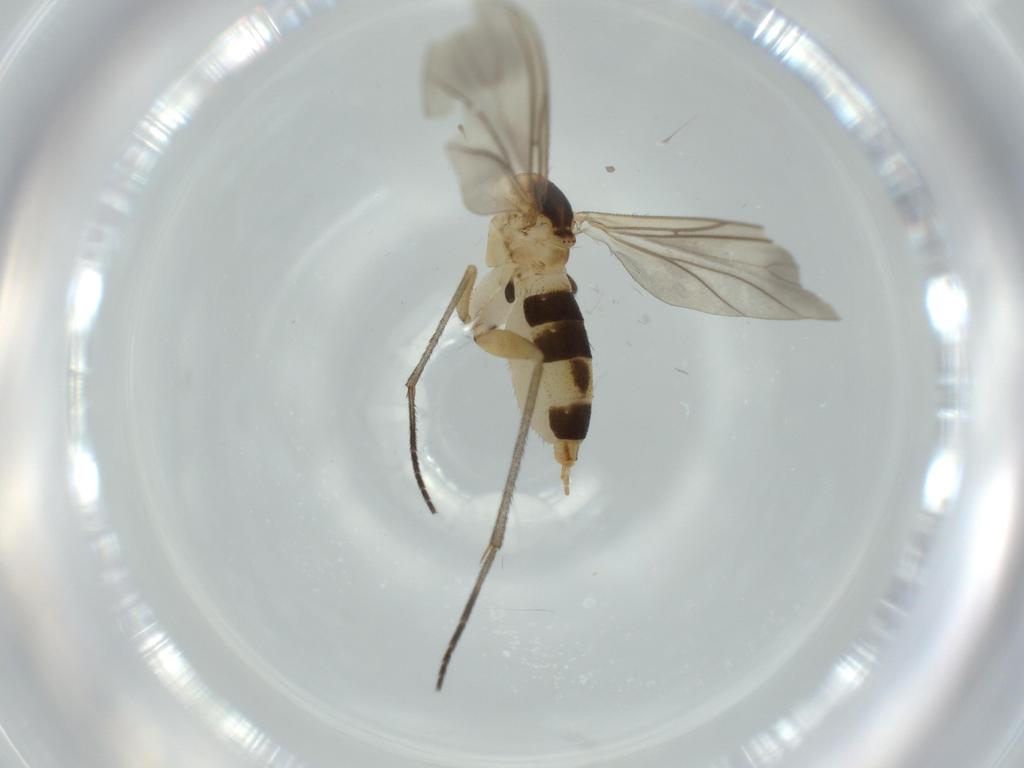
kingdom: Animalia
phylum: Arthropoda
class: Insecta
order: Diptera
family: Sciaridae
